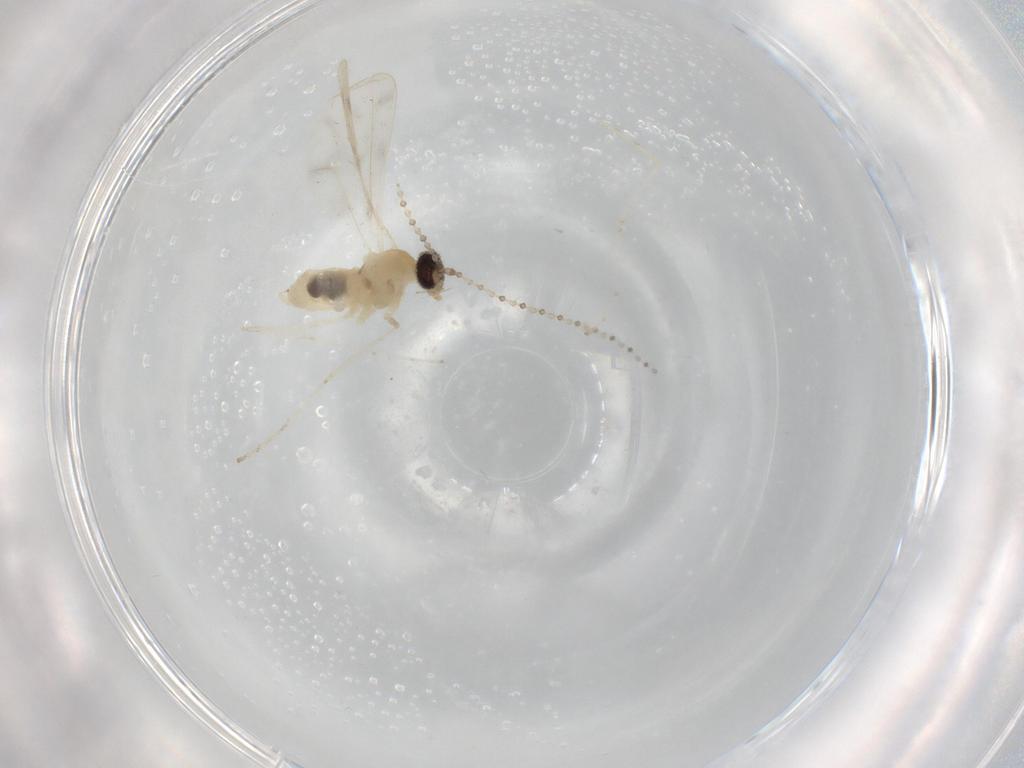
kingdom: Animalia
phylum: Arthropoda
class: Insecta
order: Diptera
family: Cecidomyiidae
